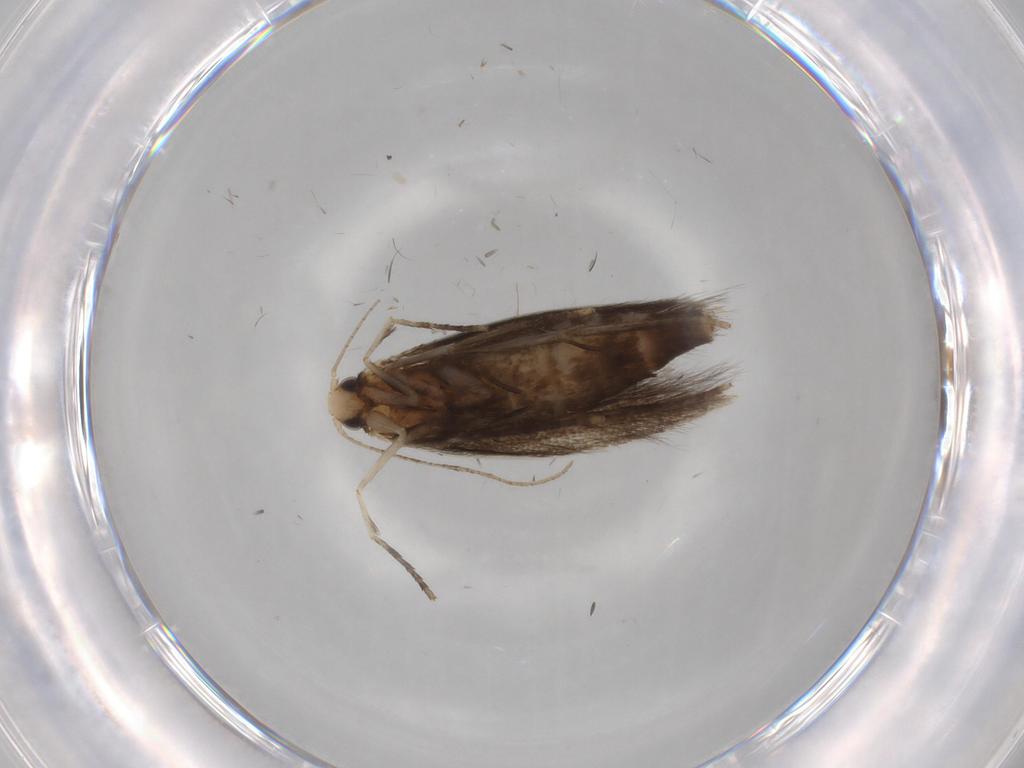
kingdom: Animalia
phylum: Arthropoda
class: Insecta
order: Lepidoptera
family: Tischeriidae
